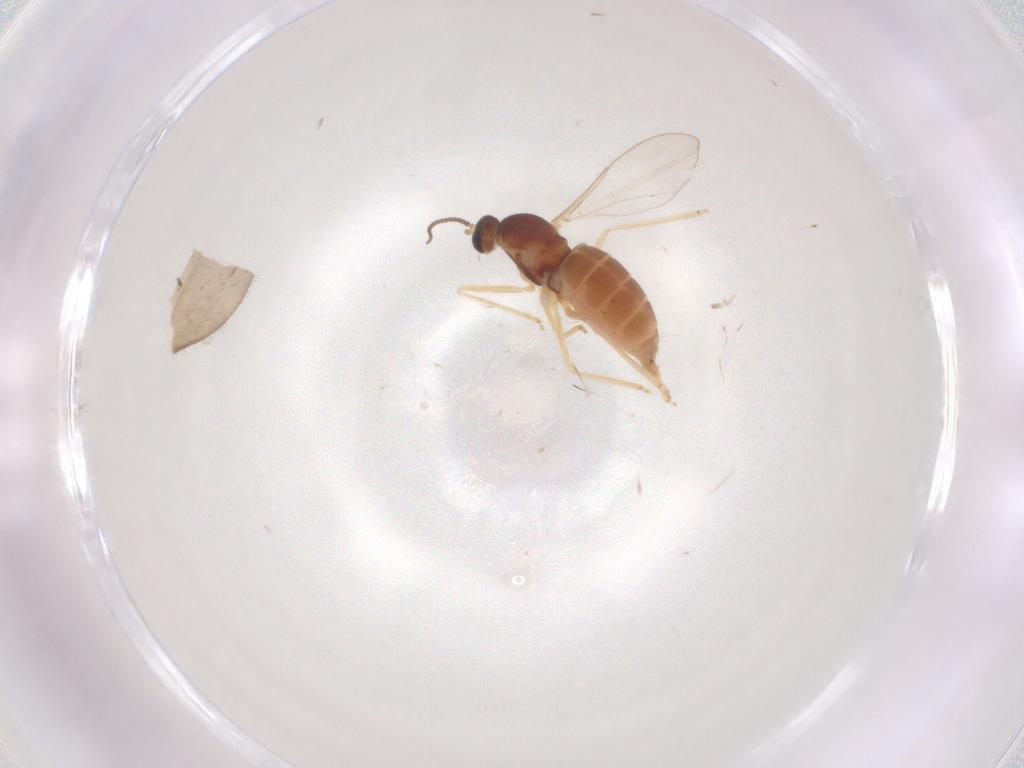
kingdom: Animalia
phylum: Arthropoda
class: Insecta
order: Diptera
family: Cecidomyiidae
